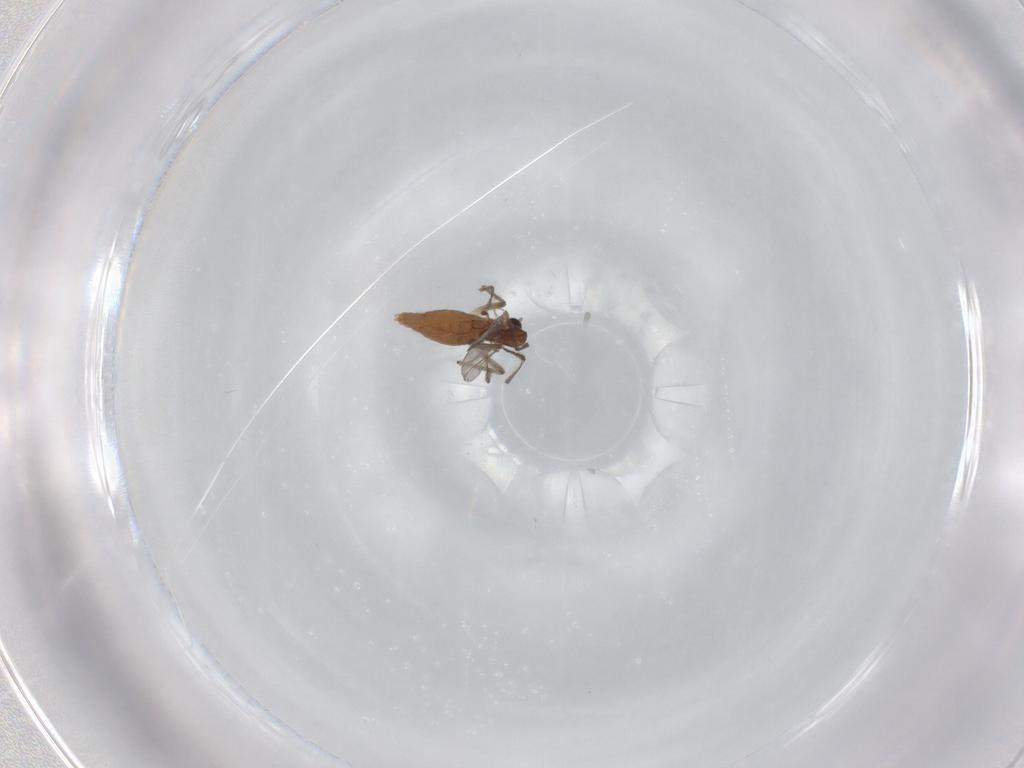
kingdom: Animalia
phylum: Arthropoda
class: Insecta
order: Diptera
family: Chironomidae
